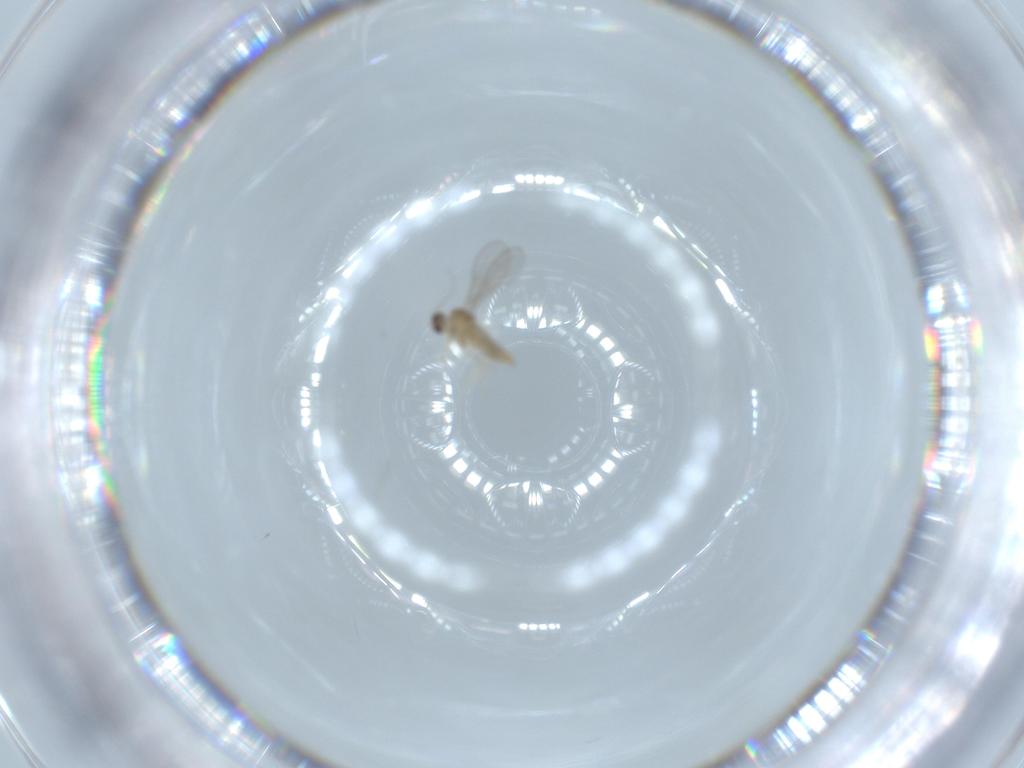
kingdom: Animalia
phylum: Arthropoda
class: Insecta
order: Diptera
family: Cecidomyiidae
